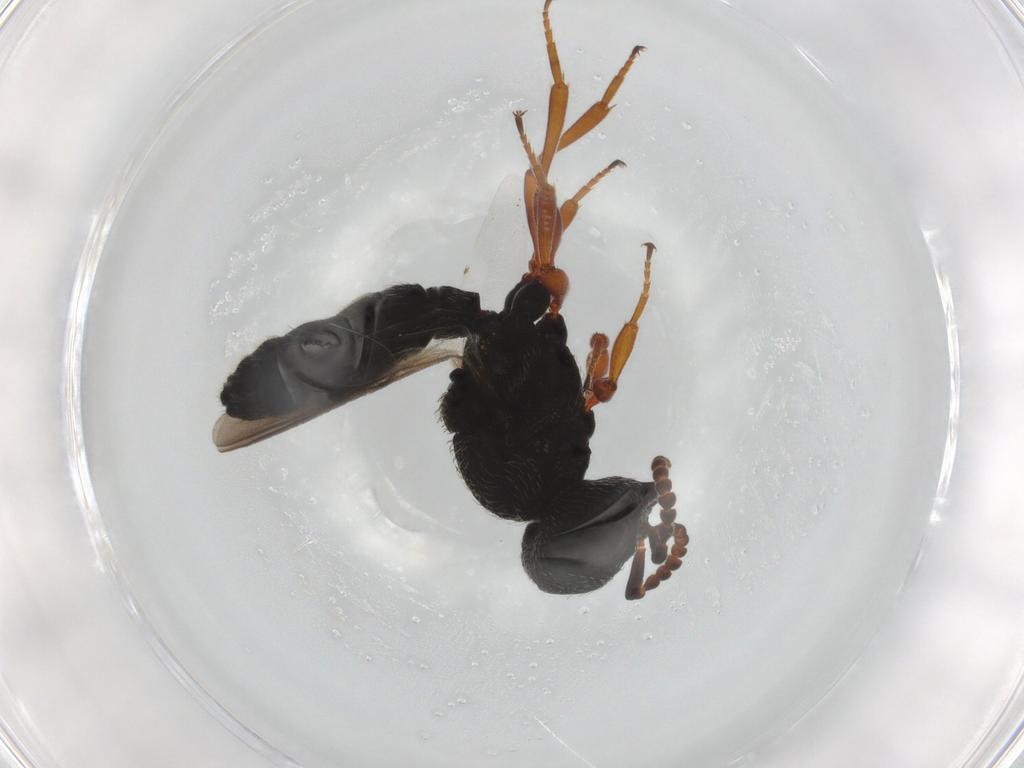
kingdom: Animalia
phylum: Arthropoda
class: Insecta
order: Hymenoptera
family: Scelionidae
